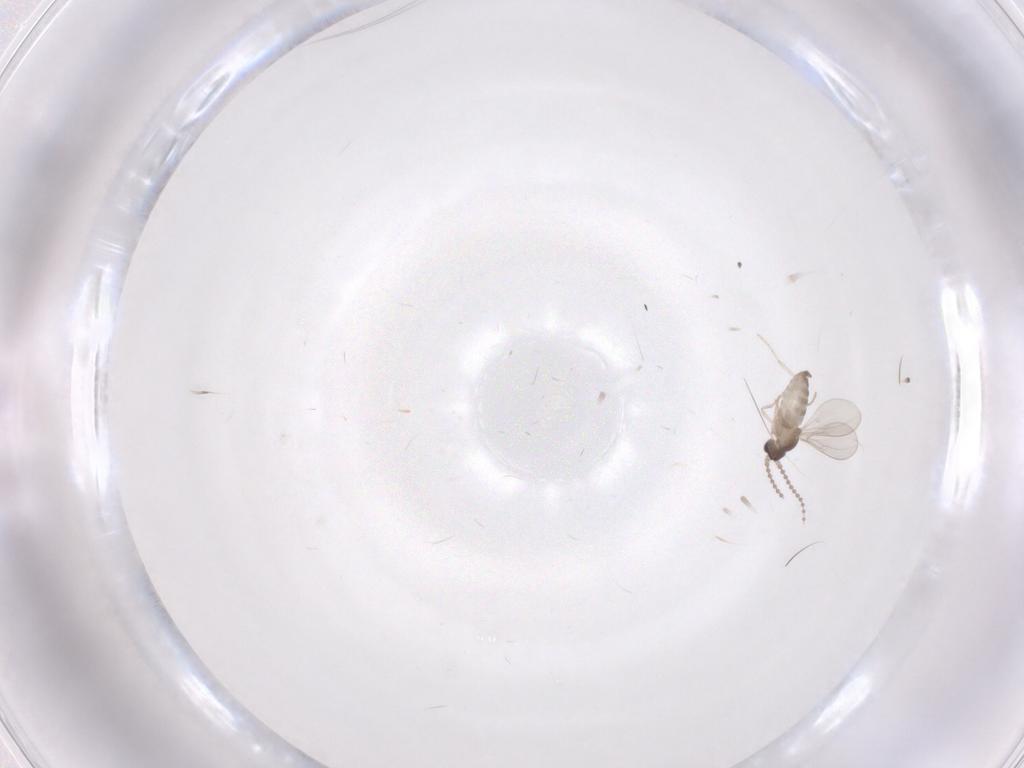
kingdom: Animalia
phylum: Arthropoda
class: Insecta
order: Diptera
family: Cecidomyiidae
